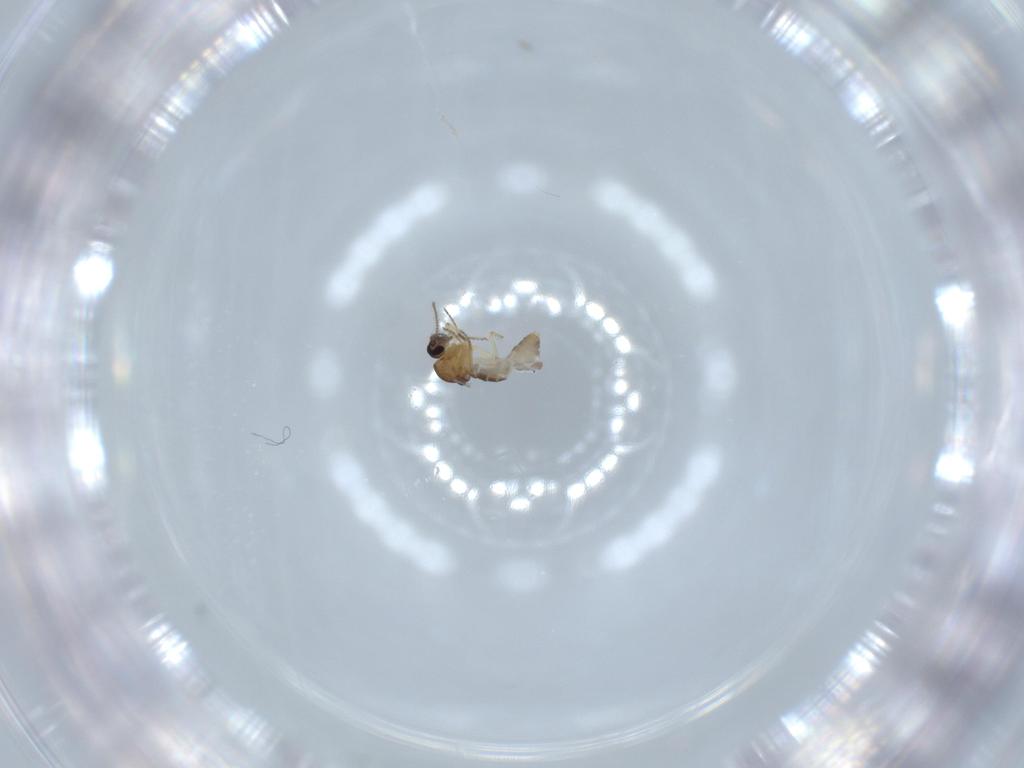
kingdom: Animalia
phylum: Arthropoda
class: Insecta
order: Diptera
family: Ceratopogonidae
